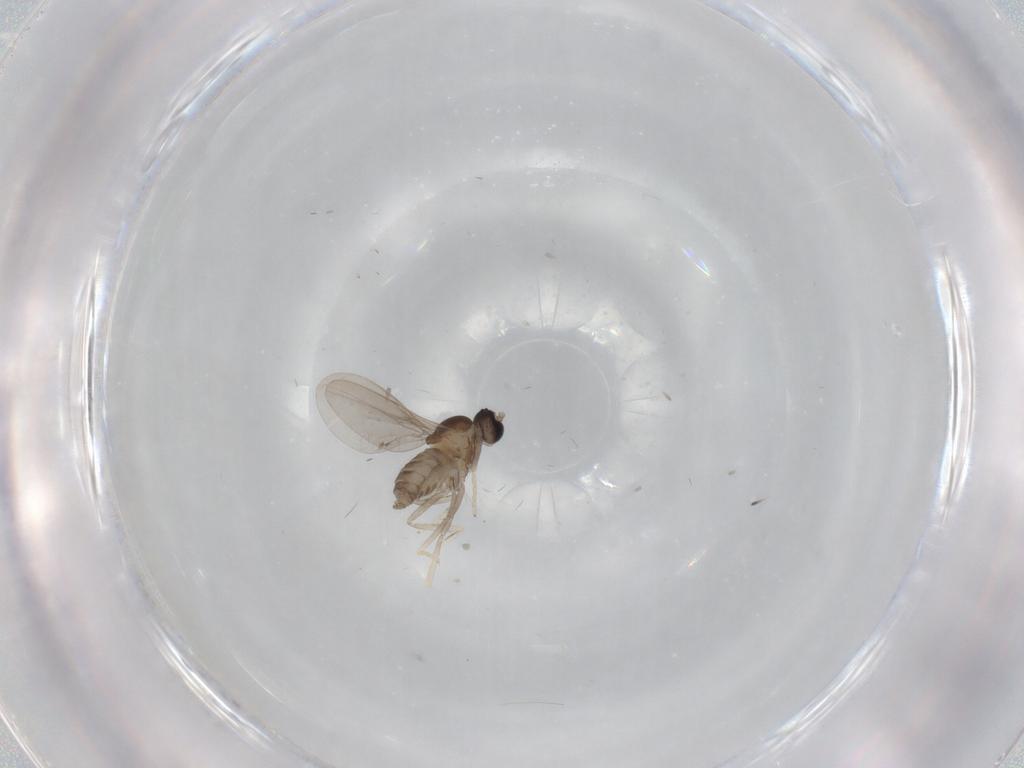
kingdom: Animalia
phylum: Arthropoda
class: Insecta
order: Diptera
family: Cecidomyiidae
